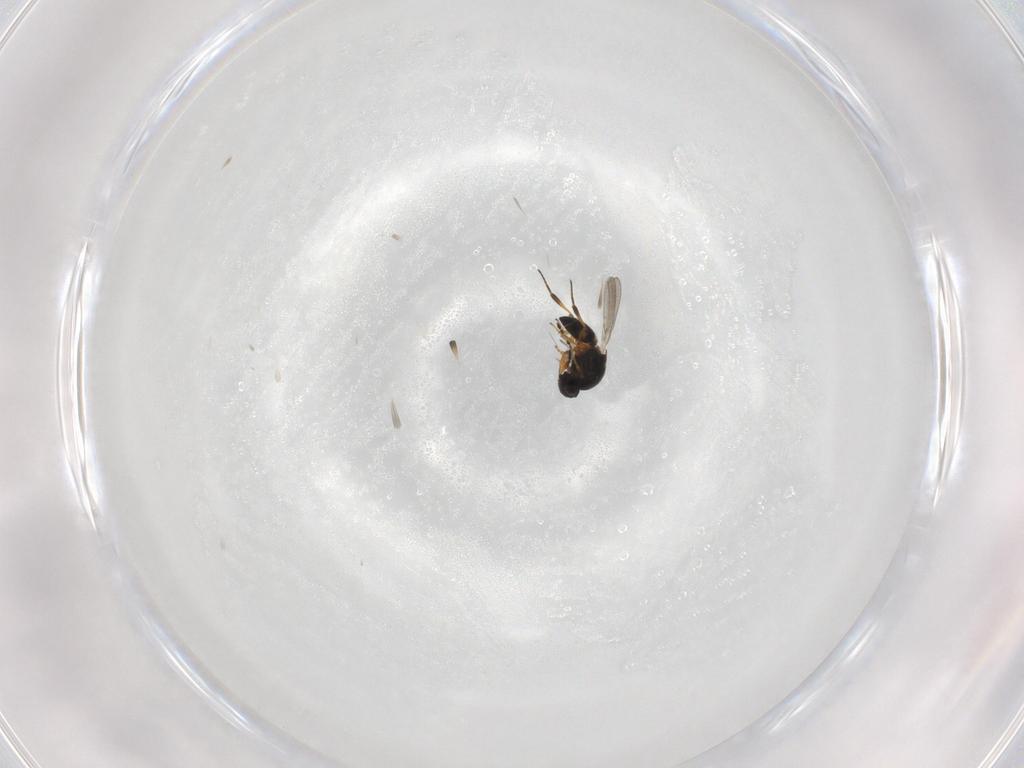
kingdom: Animalia
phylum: Arthropoda
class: Insecta
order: Hymenoptera
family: Platygastridae
